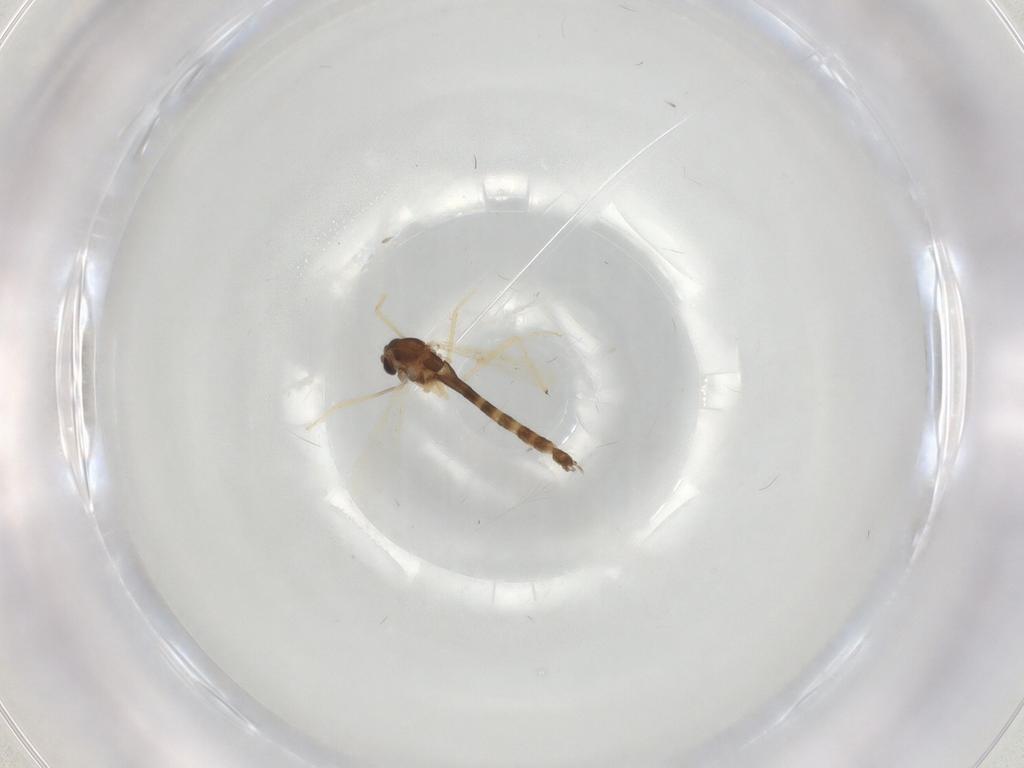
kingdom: Animalia
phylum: Arthropoda
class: Insecta
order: Diptera
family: Chironomidae
